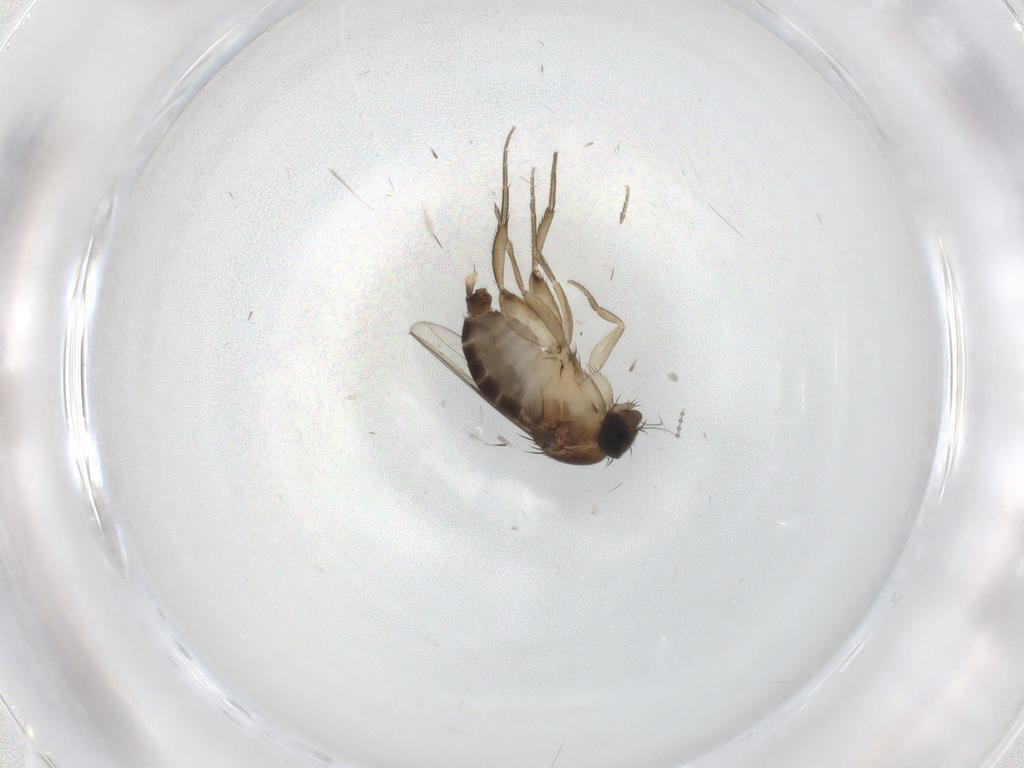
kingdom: Animalia
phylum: Arthropoda
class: Insecta
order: Diptera
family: Phoridae
